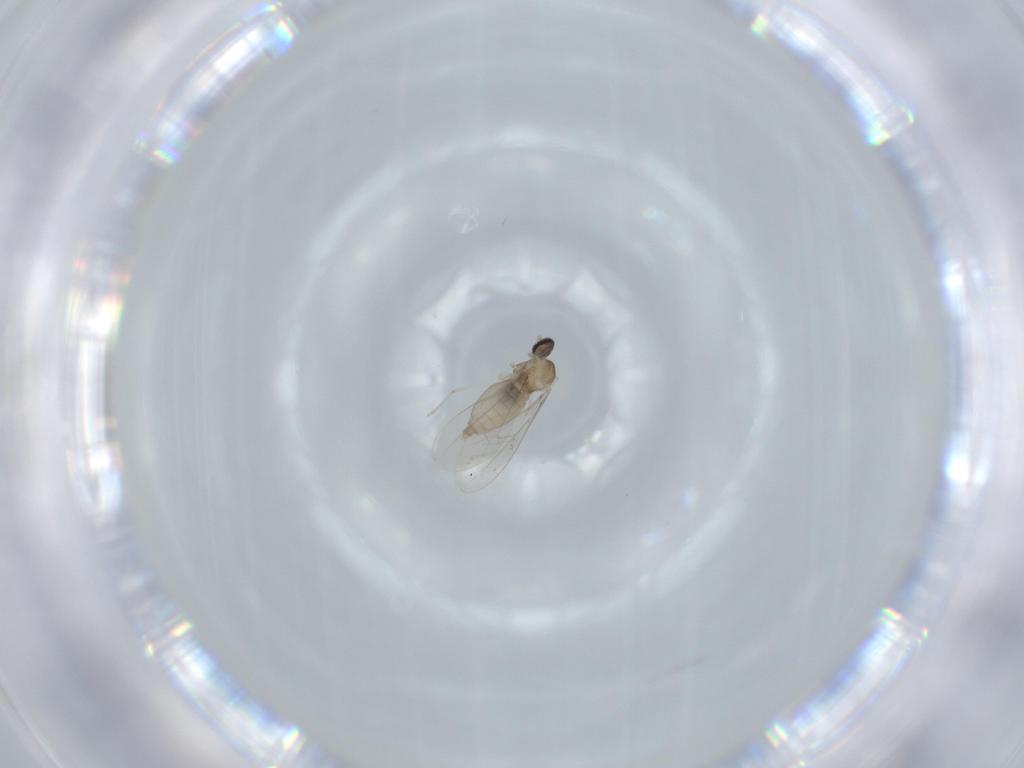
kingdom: Animalia
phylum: Arthropoda
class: Insecta
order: Diptera
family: Cecidomyiidae
